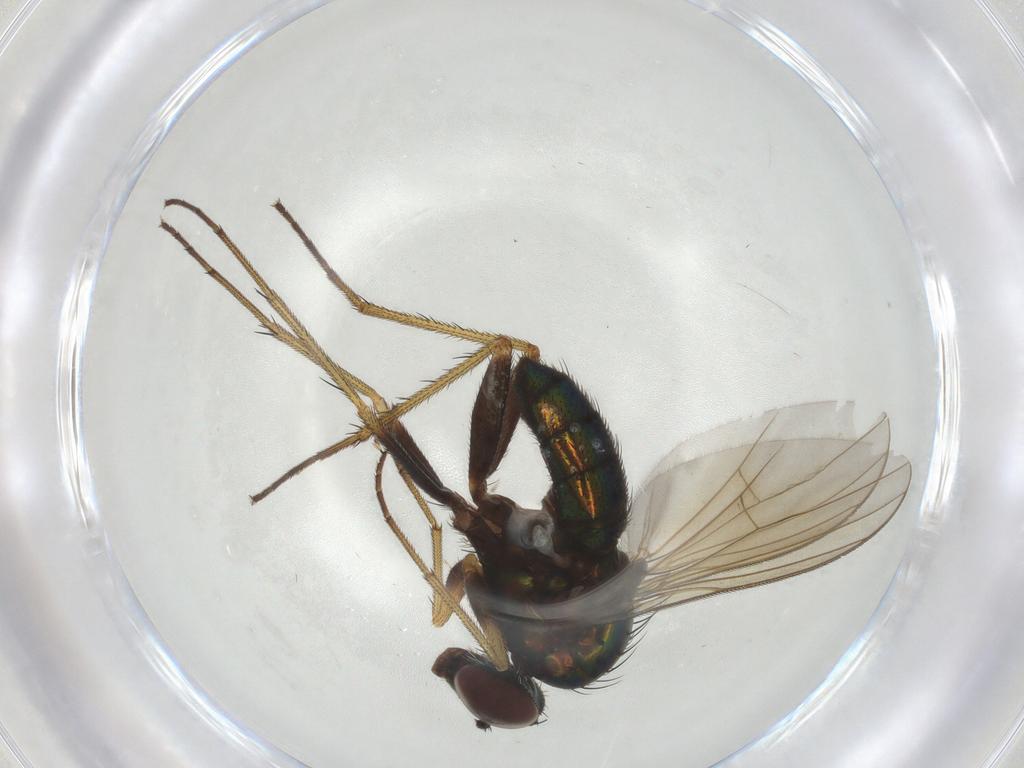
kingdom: Animalia
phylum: Arthropoda
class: Insecta
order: Diptera
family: Dolichopodidae
